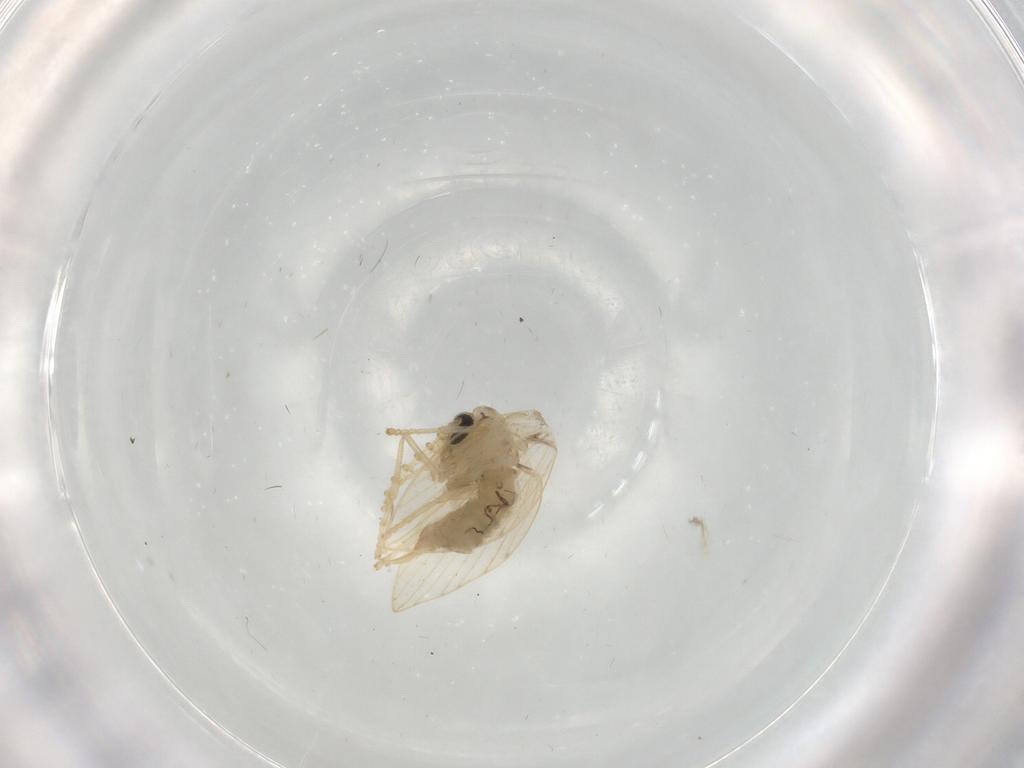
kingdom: Animalia
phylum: Arthropoda
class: Insecta
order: Diptera
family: Psychodidae
